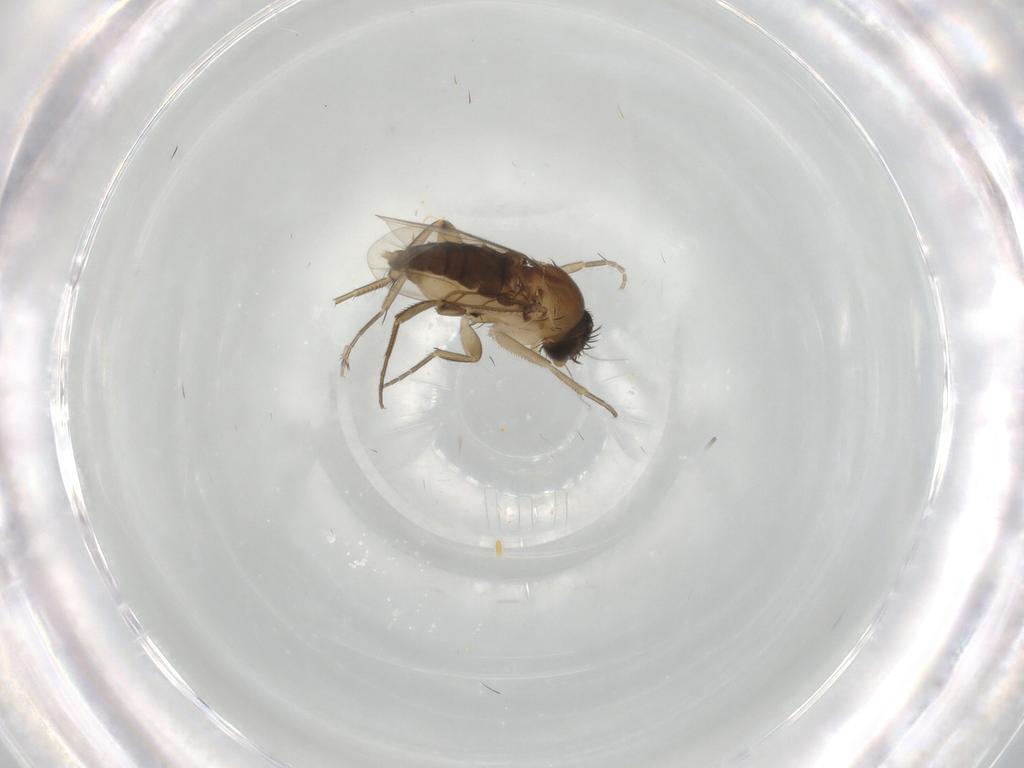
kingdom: Animalia
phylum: Arthropoda
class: Insecta
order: Diptera
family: Phoridae
